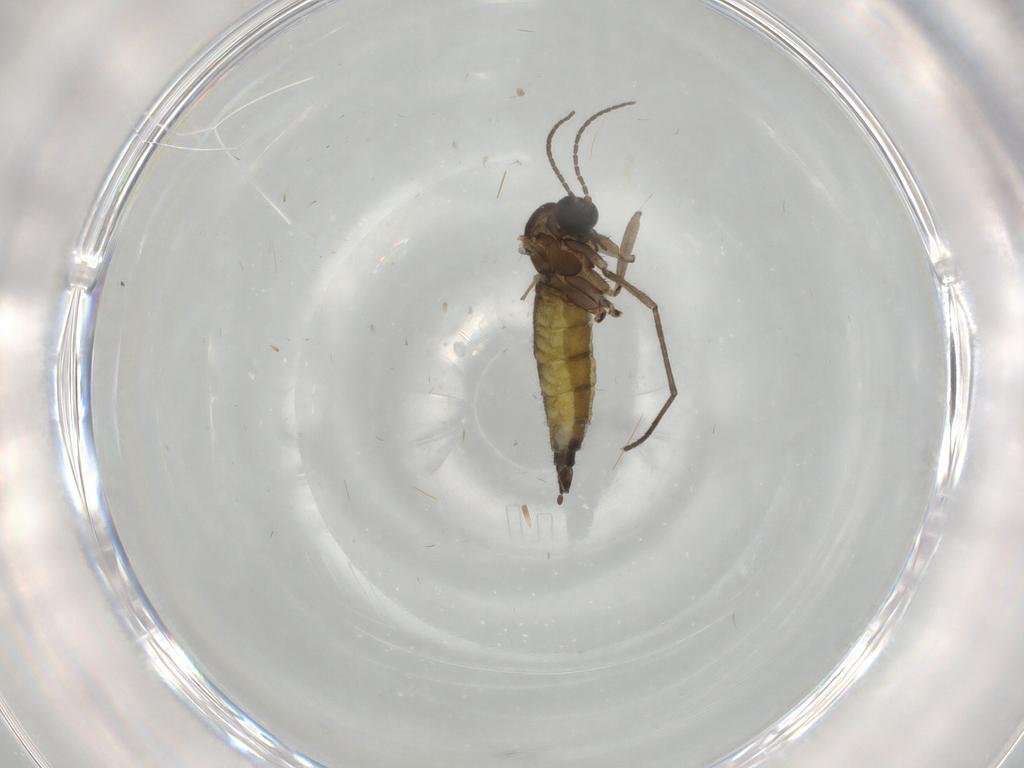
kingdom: Animalia
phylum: Arthropoda
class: Insecta
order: Diptera
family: Sciaridae
